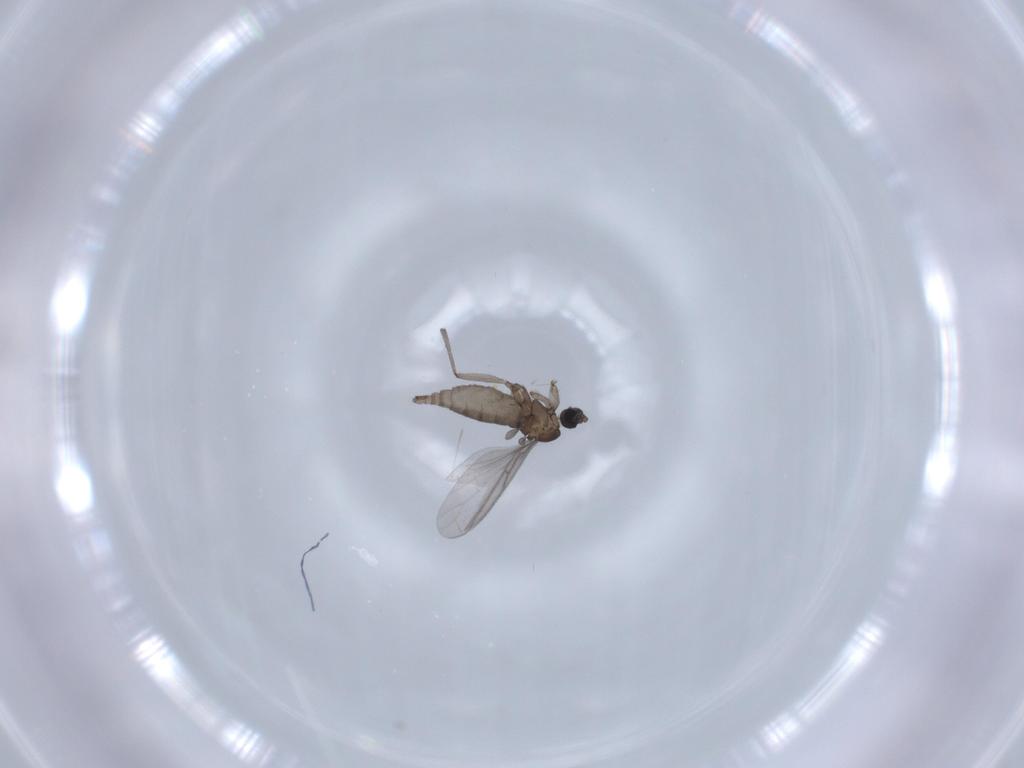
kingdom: Animalia
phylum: Arthropoda
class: Insecta
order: Diptera
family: Sciaridae
